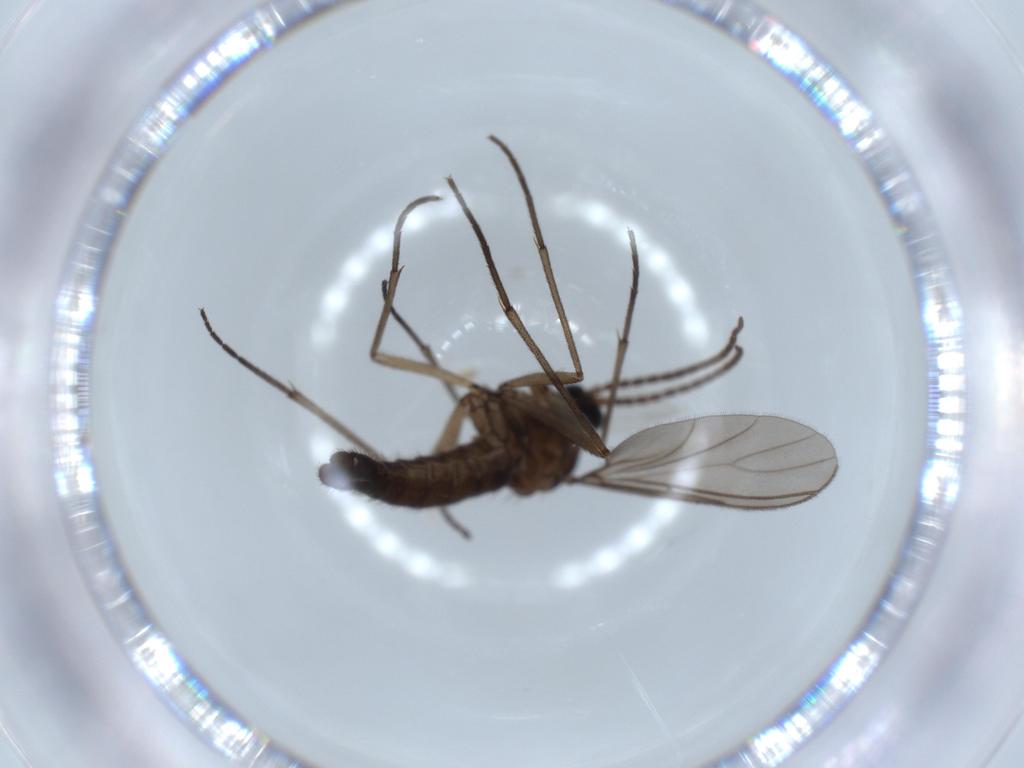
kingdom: Animalia
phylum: Arthropoda
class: Insecta
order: Diptera
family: Sciaridae
